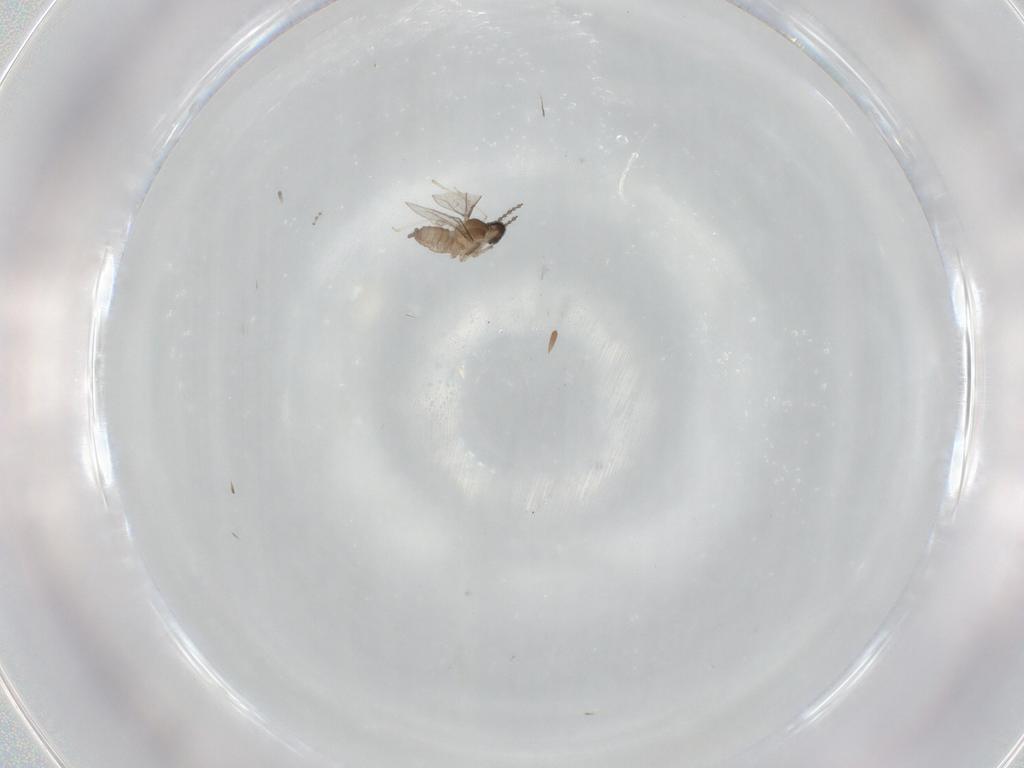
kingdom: Animalia
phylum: Arthropoda
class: Insecta
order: Diptera
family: Cecidomyiidae
